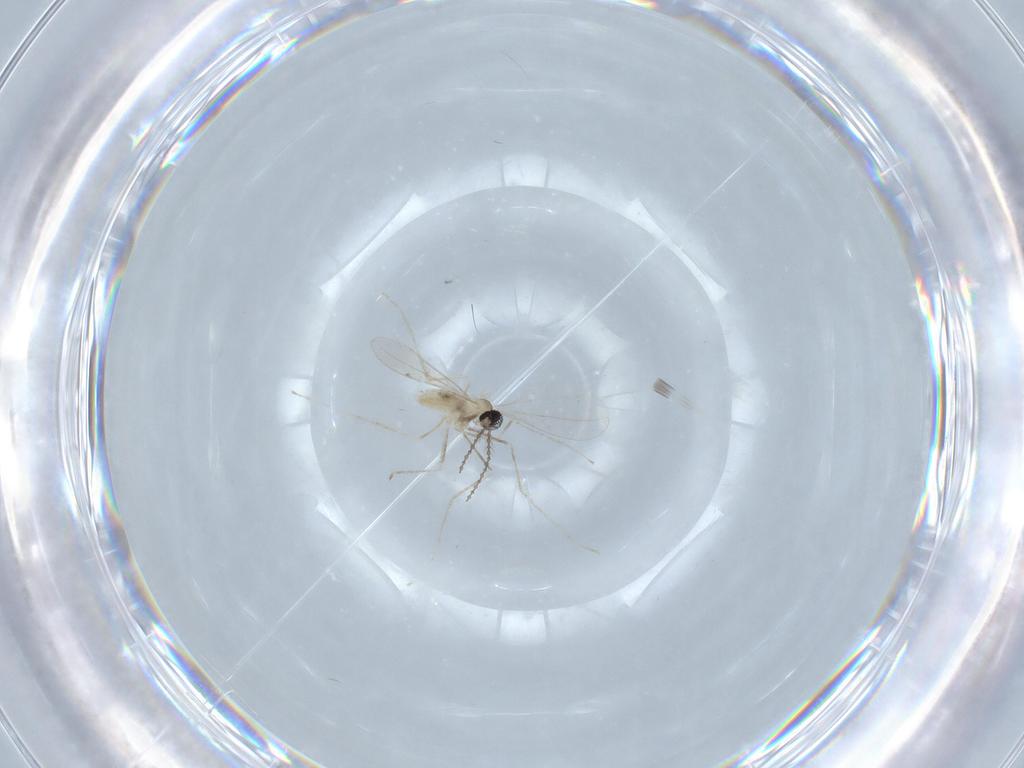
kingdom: Animalia
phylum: Arthropoda
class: Insecta
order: Diptera
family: Cecidomyiidae
